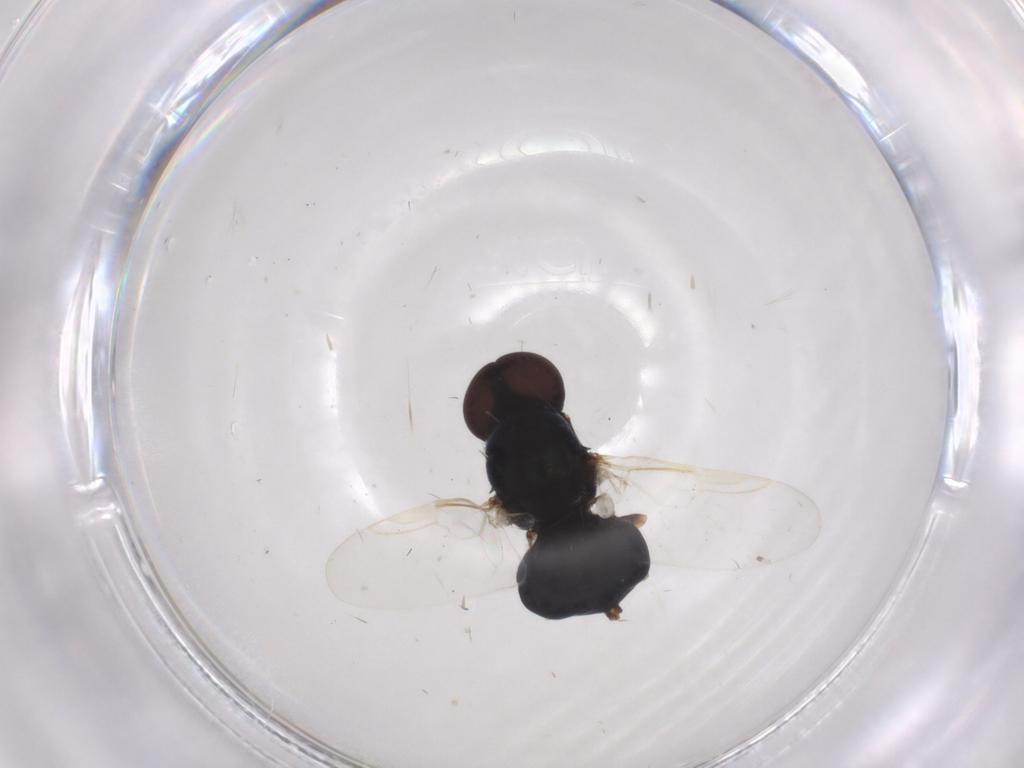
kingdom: Animalia
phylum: Arthropoda
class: Insecta
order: Diptera
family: Stratiomyidae
